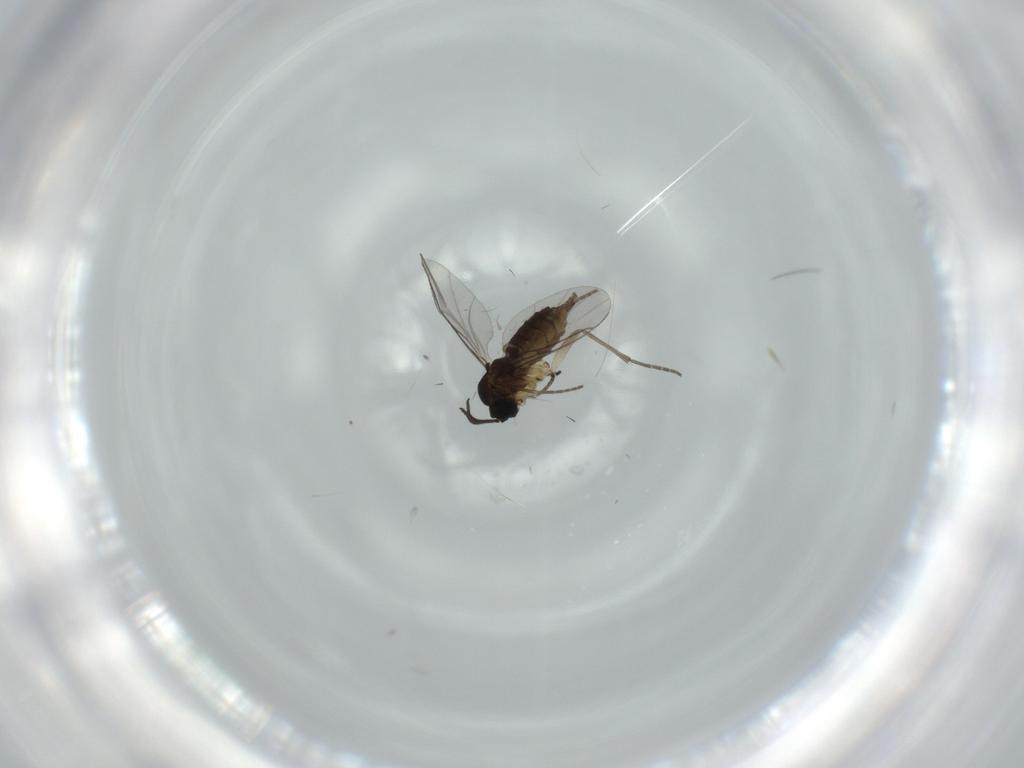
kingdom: Animalia
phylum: Arthropoda
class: Insecta
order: Diptera
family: Sciaridae
